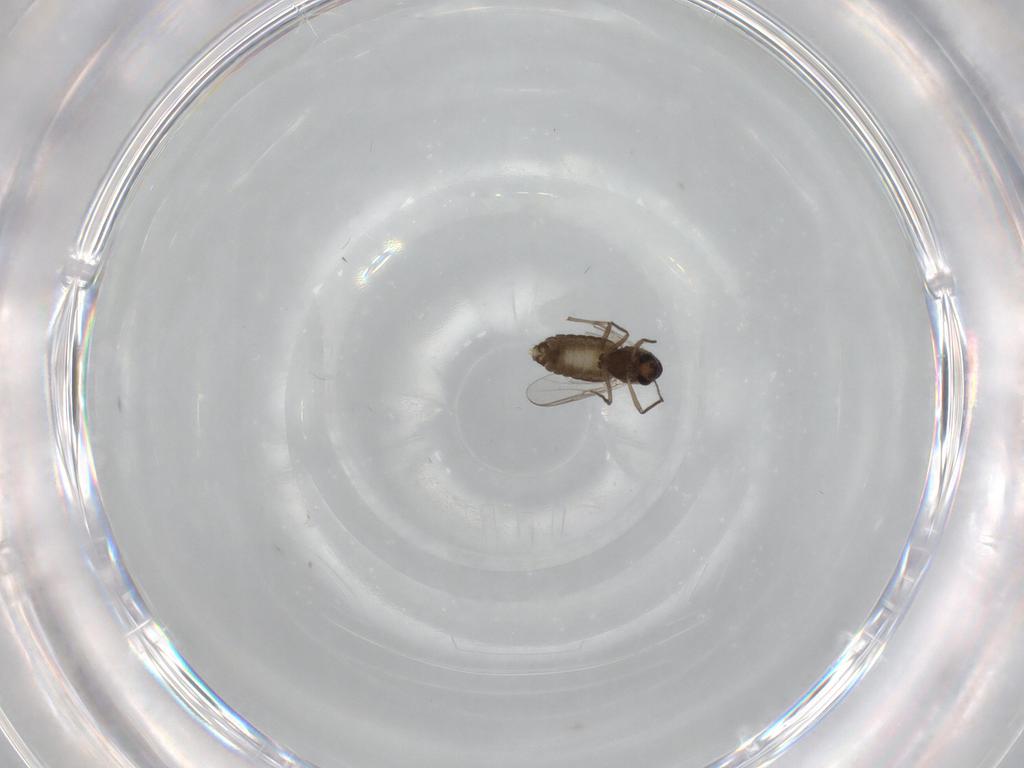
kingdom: Animalia
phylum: Arthropoda
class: Insecta
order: Diptera
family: Chironomidae
